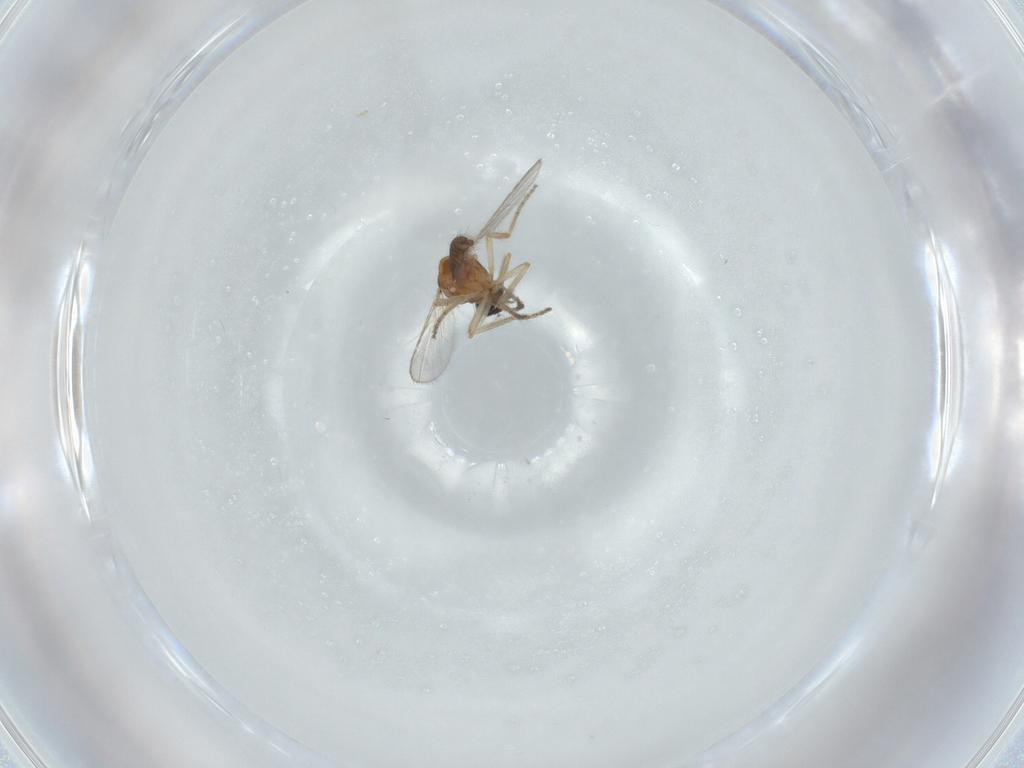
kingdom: Animalia
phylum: Arthropoda
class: Insecta
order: Diptera
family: Ceratopogonidae
